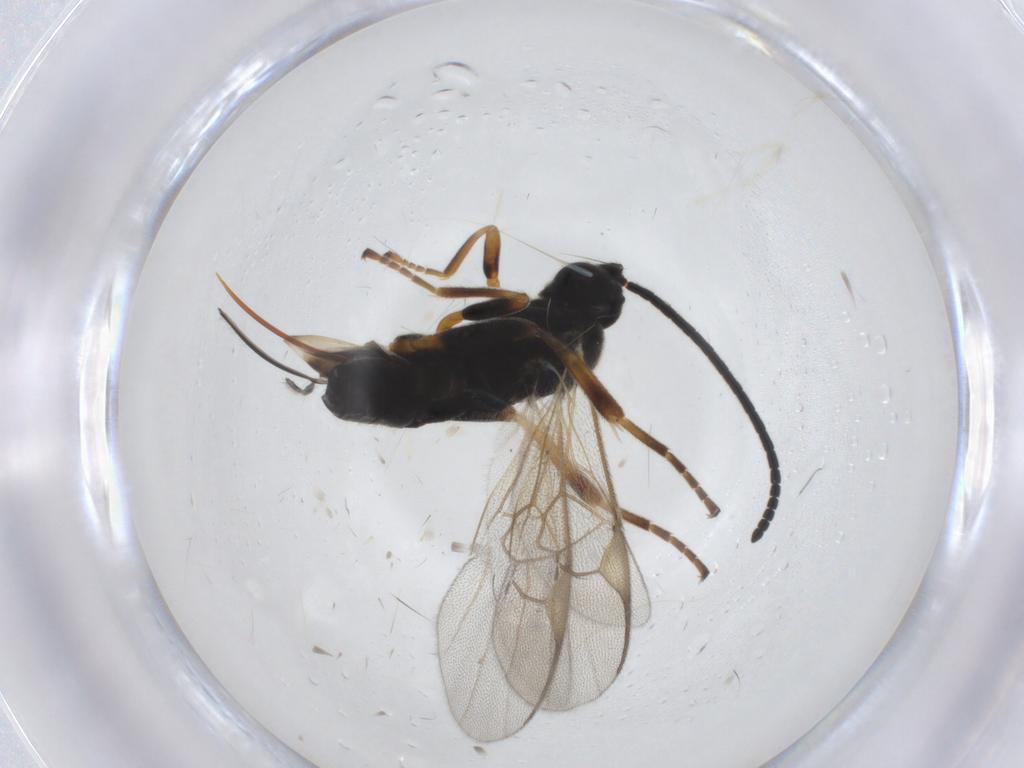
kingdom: Animalia
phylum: Arthropoda
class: Insecta
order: Hymenoptera
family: Braconidae
